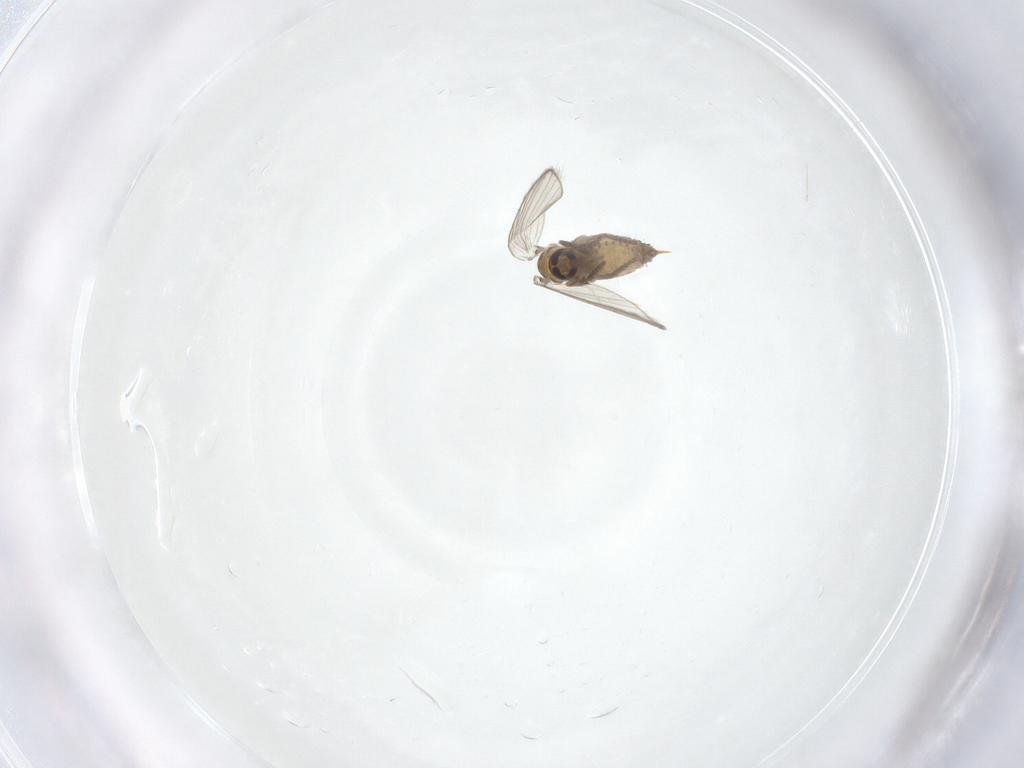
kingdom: Animalia
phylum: Arthropoda
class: Insecta
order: Diptera
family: Psychodidae
